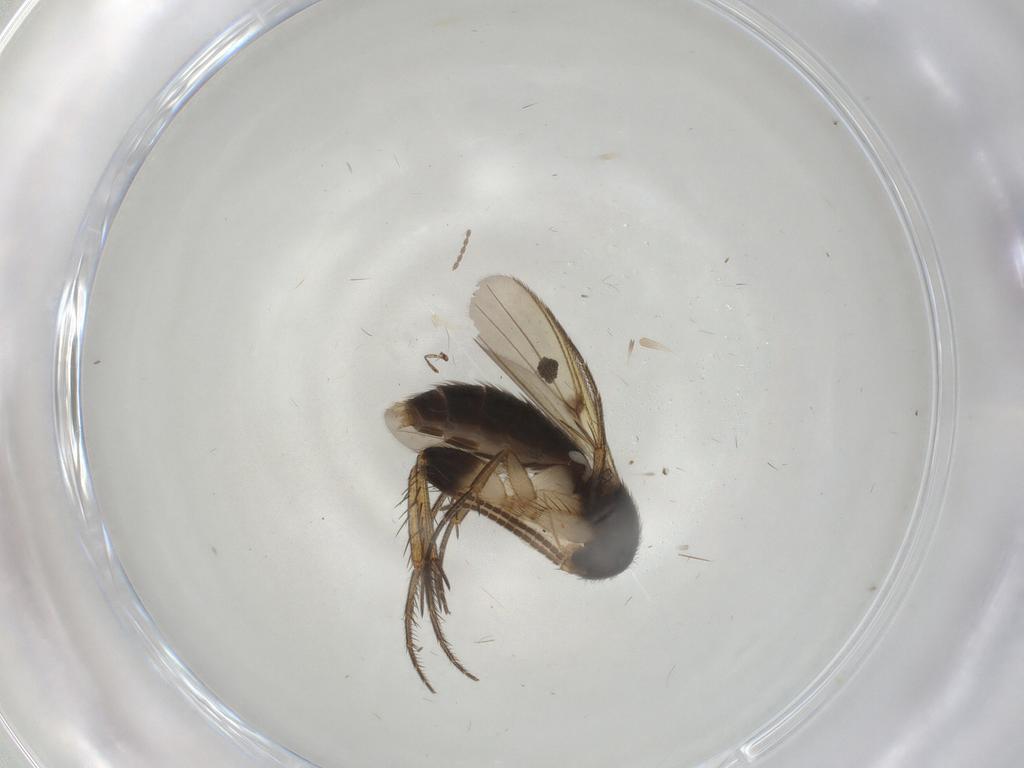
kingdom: Animalia
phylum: Arthropoda
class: Insecta
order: Diptera
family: Mycetophilidae
